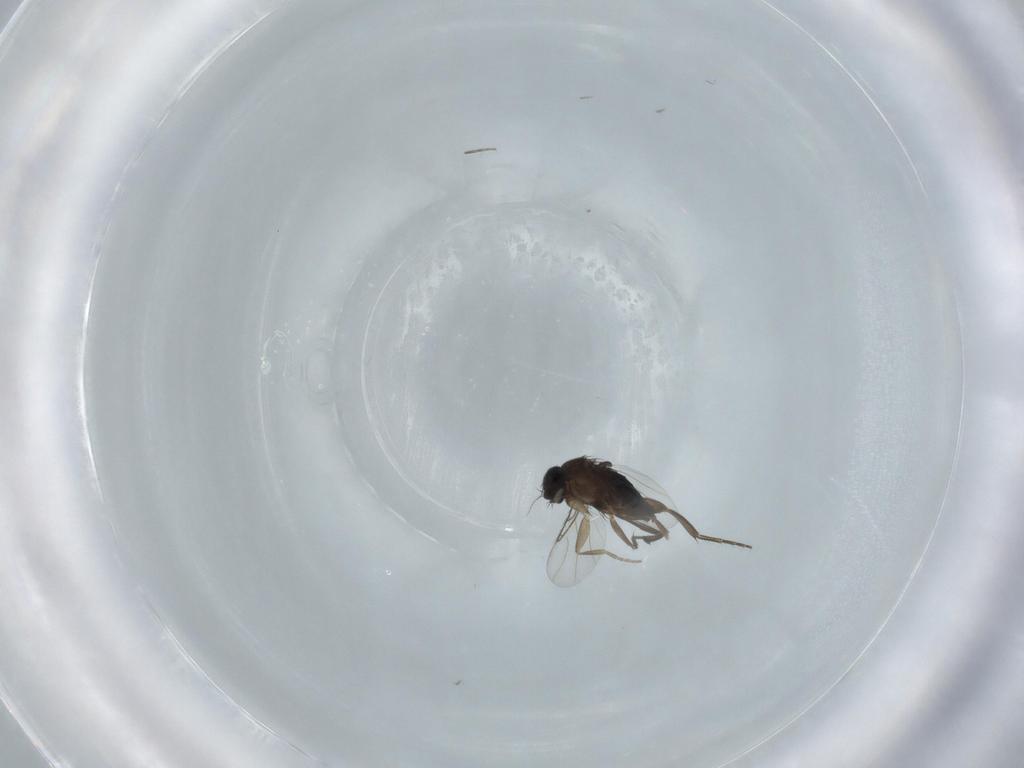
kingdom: Animalia
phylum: Arthropoda
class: Insecta
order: Diptera
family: Phoridae
